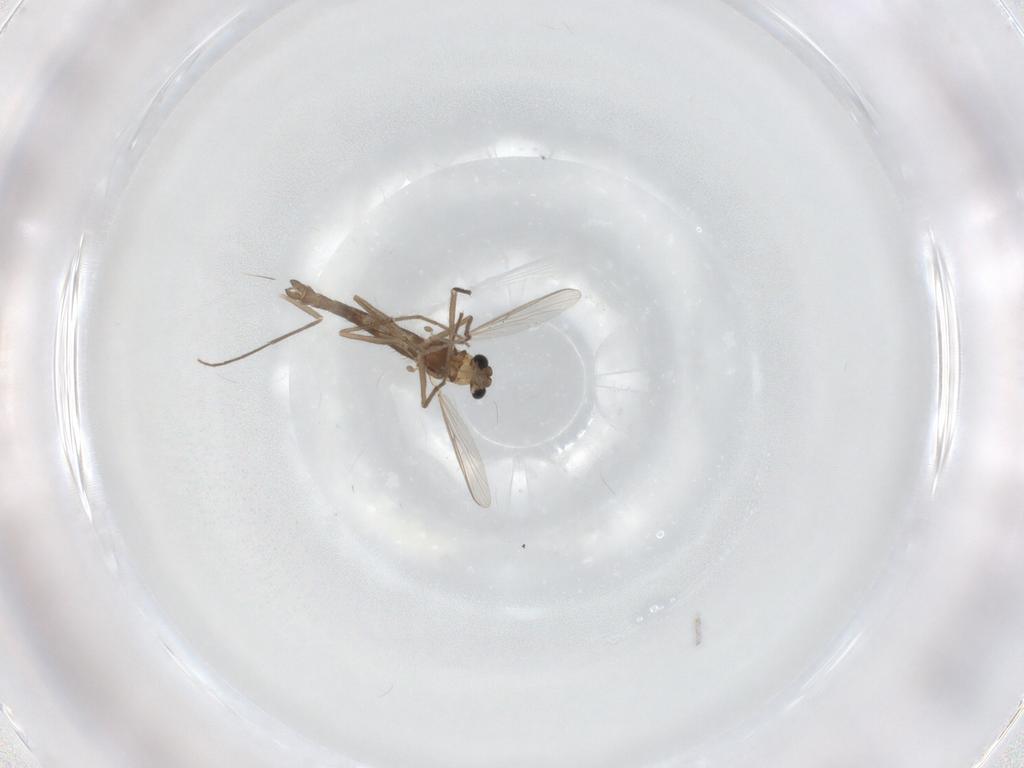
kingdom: Animalia
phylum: Arthropoda
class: Insecta
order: Diptera
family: Chironomidae
